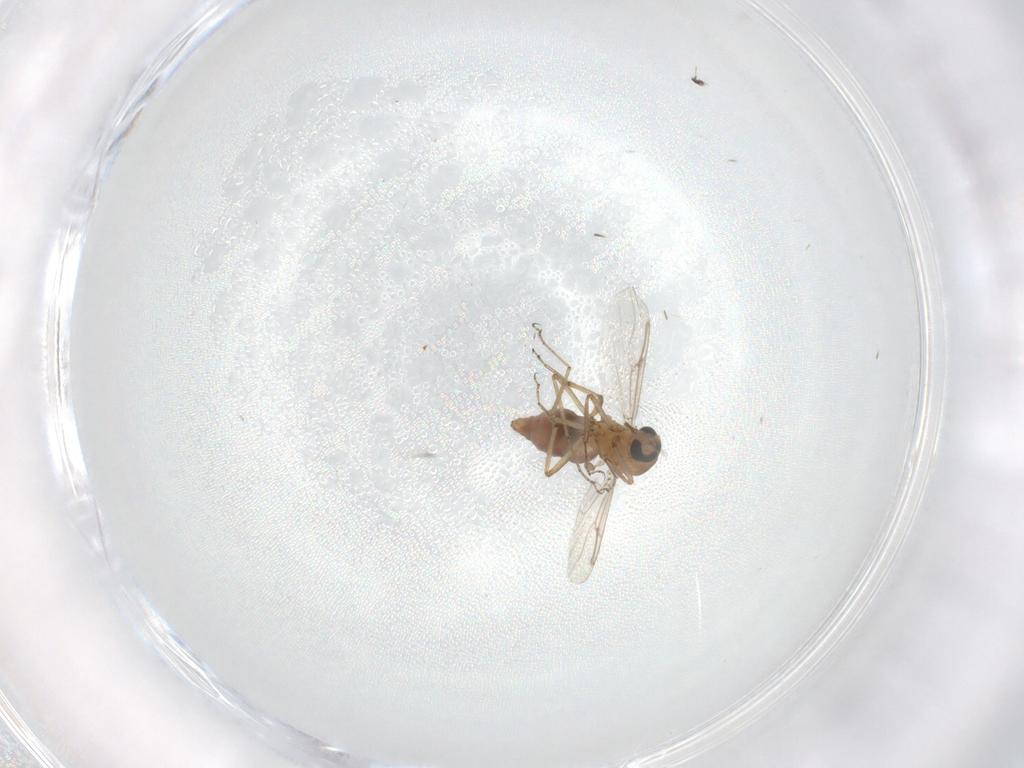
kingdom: Animalia
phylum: Arthropoda
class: Insecta
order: Diptera
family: Ceratopogonidae
